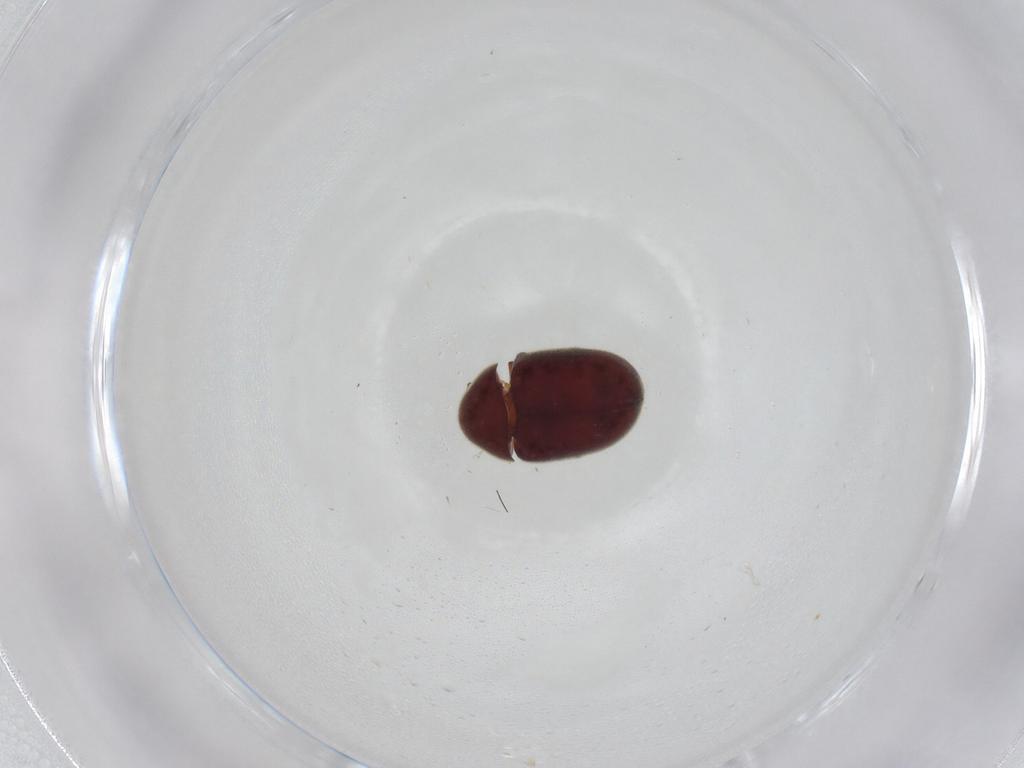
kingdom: Animalia
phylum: Arthropoda
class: Insecta
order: Coleoptera
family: Ptinidae
